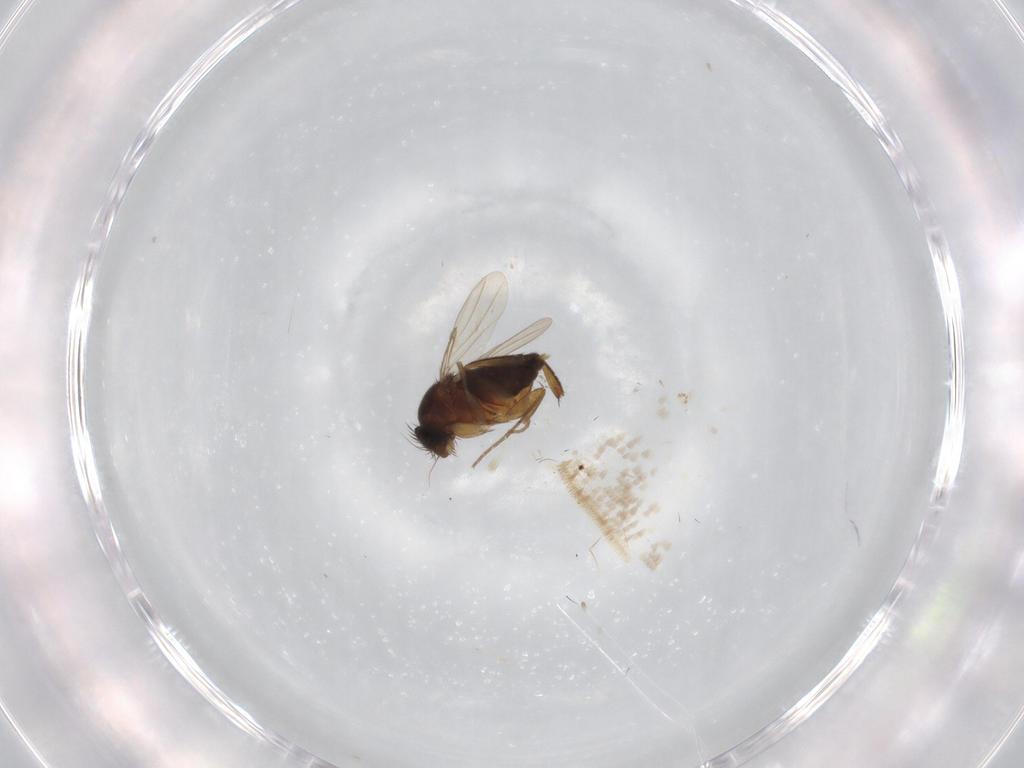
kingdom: Animalia
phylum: Arthropoda
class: Insecta
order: Diptera
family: Phoridae
